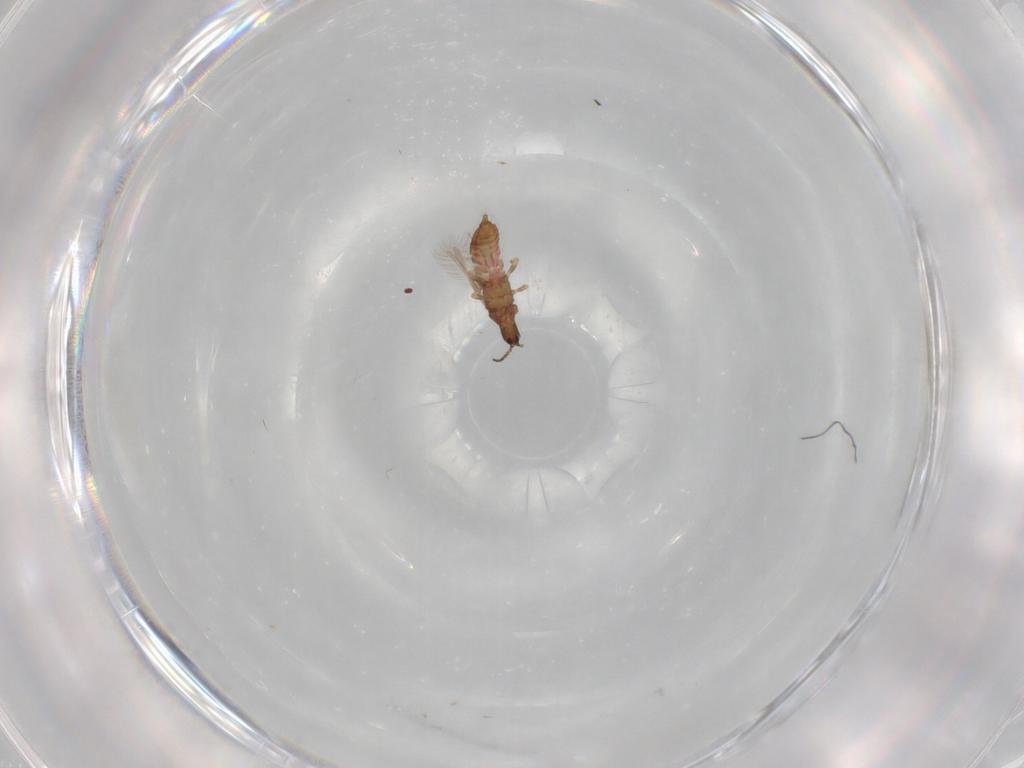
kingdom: Animalia
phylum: Arthropoda
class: Insecta
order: Thysanoptera
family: Phlaeothripidae
